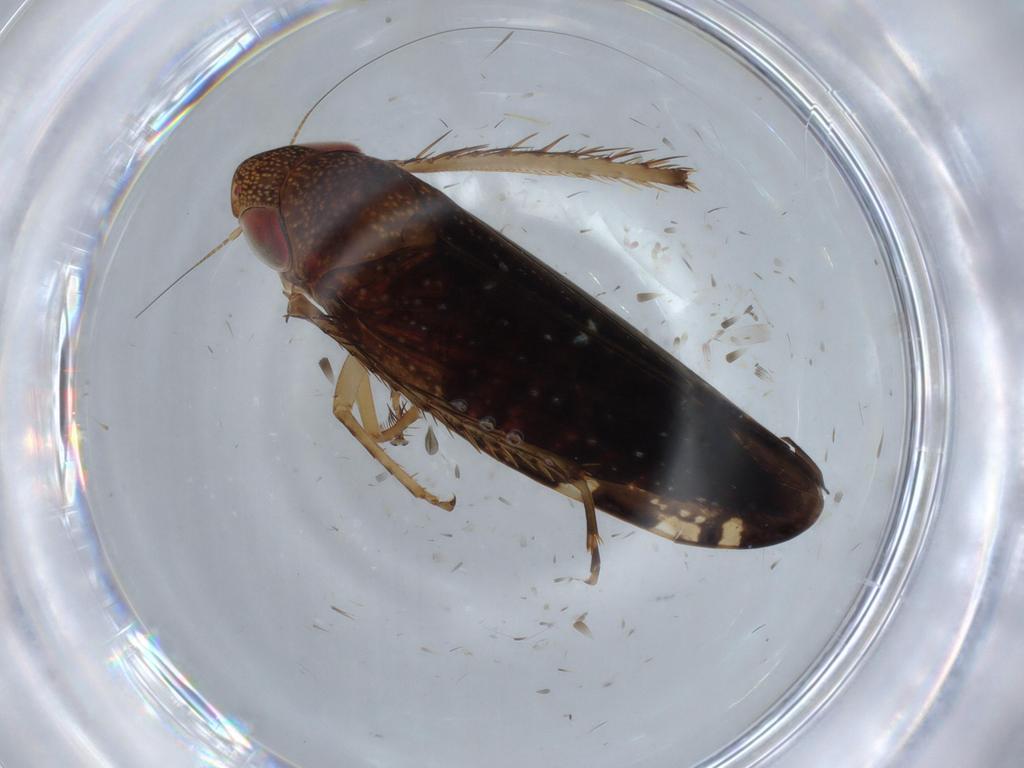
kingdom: Animalia
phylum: Arthropoda
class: Insecta
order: Hemiptera
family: Cicadellidae
